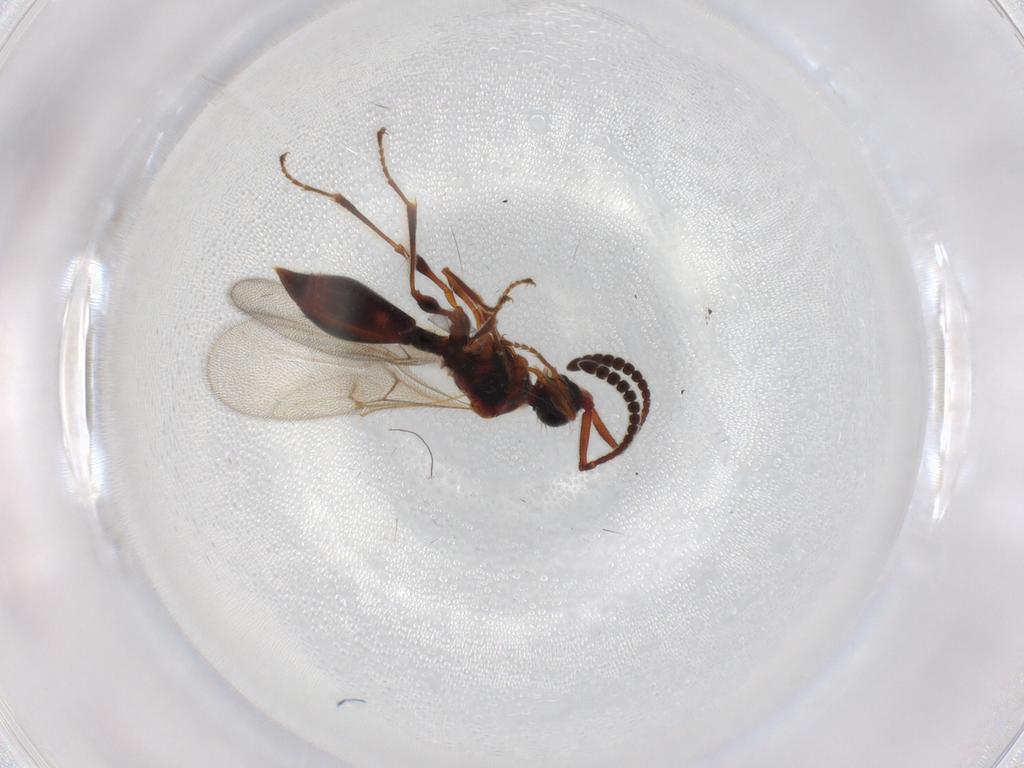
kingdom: Animalia
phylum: Arthropoda
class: Insecta
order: Hymenoptera
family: Diapriidae
